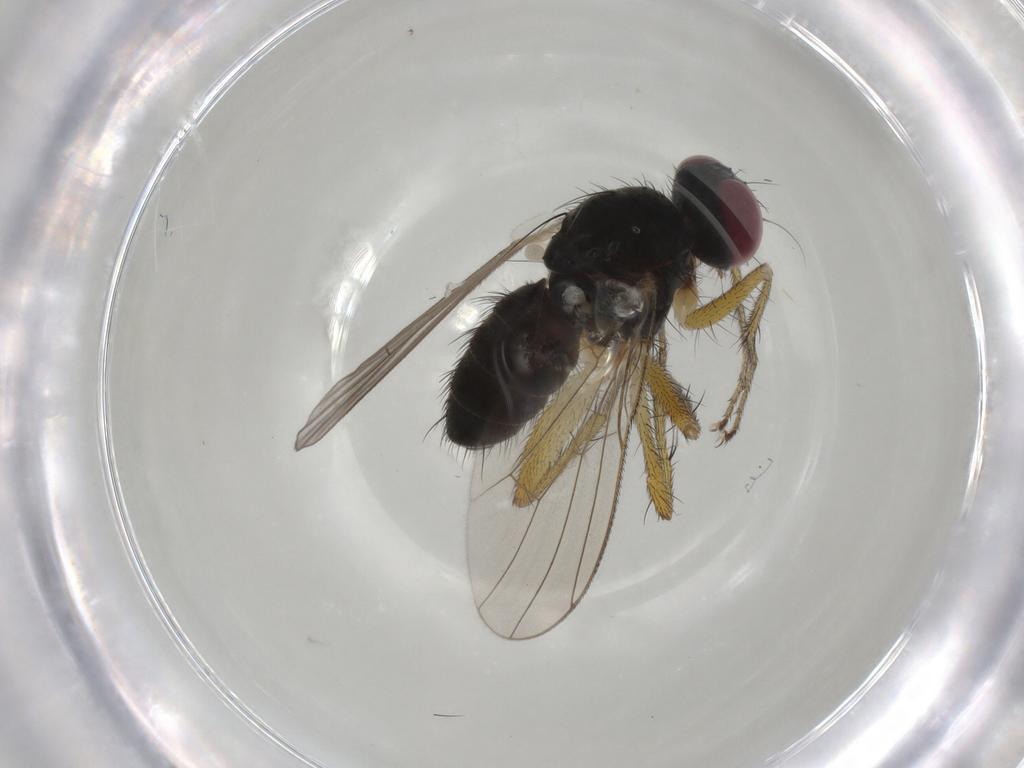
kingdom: Animalia
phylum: Arthropoda
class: Insecta
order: Diptera
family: Muscidae
